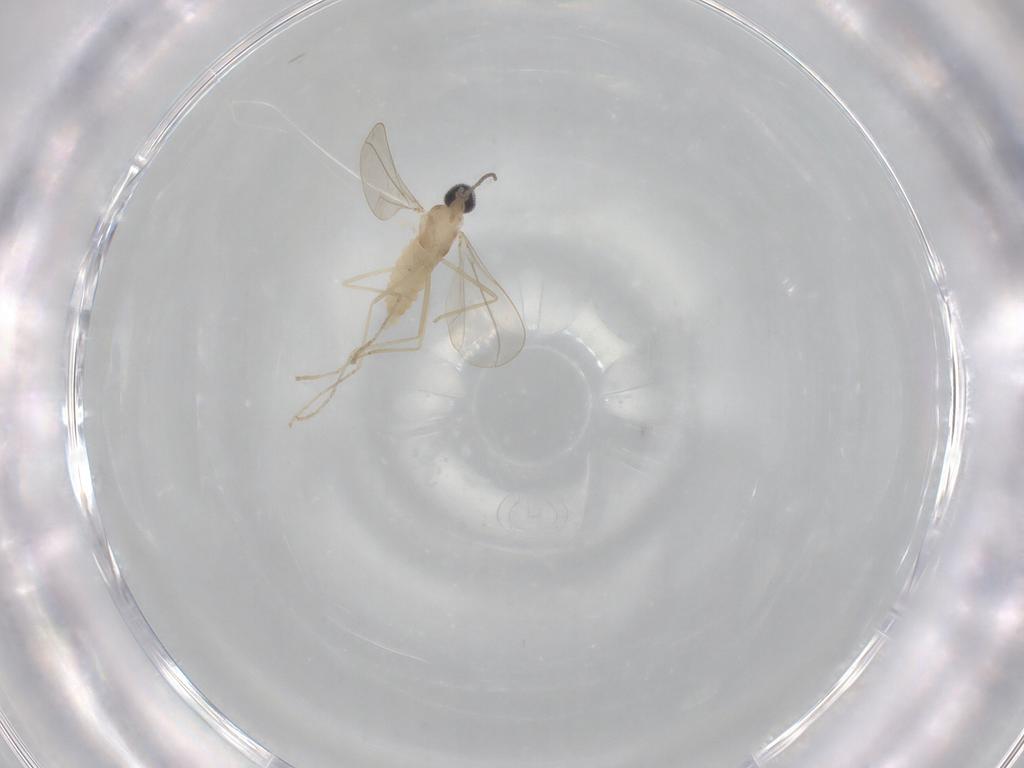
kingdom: Animalia
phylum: Arthropoda
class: Insecta
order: Diptera
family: Cecidomyiidae
